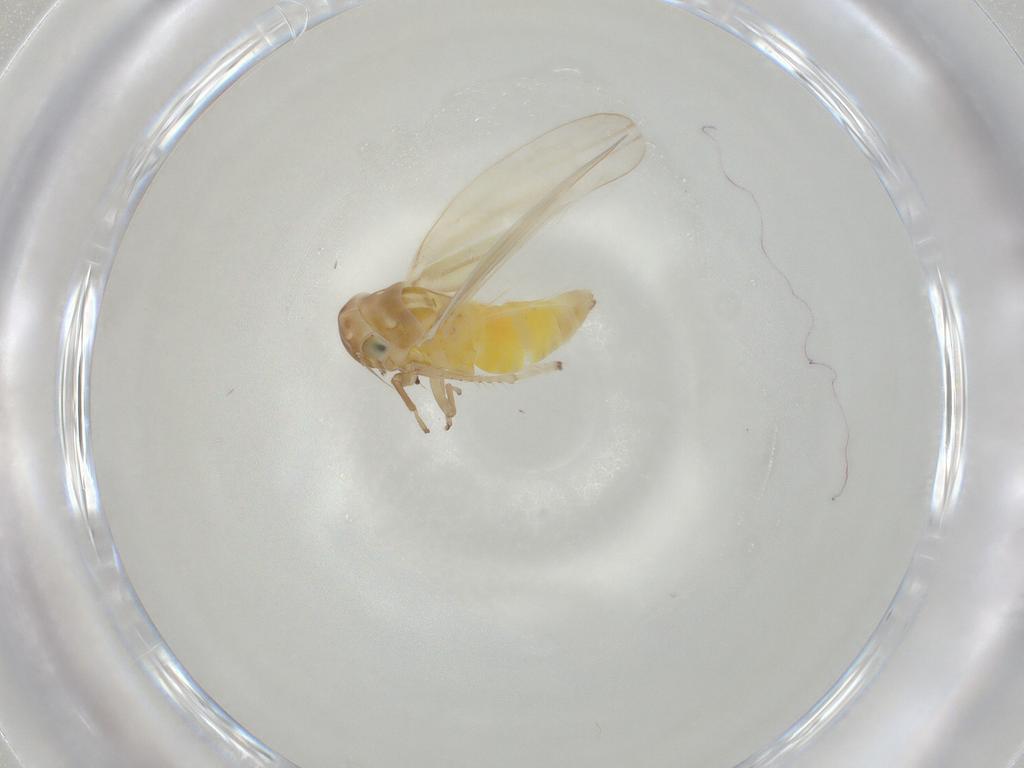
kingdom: Animalia
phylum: Arthropoda
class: Insecta
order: Hemiptera
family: Cicadellidae
